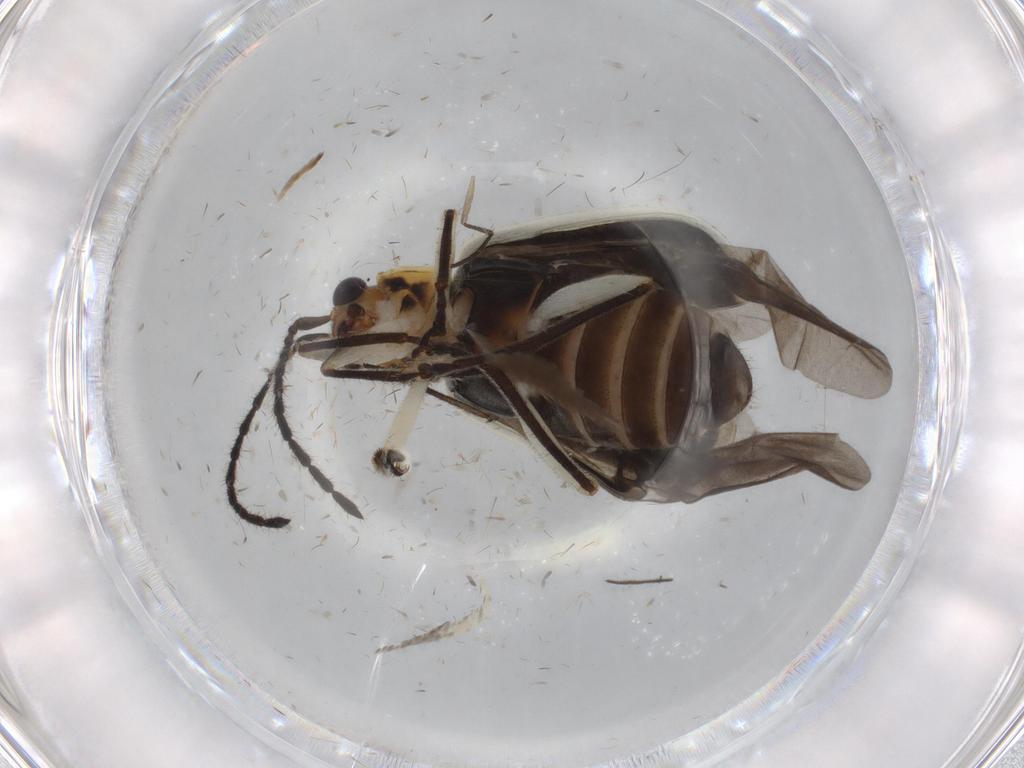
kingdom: Animalia
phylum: Arthropoda
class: Insecta
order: Coleoptera
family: Chrysomelidae
